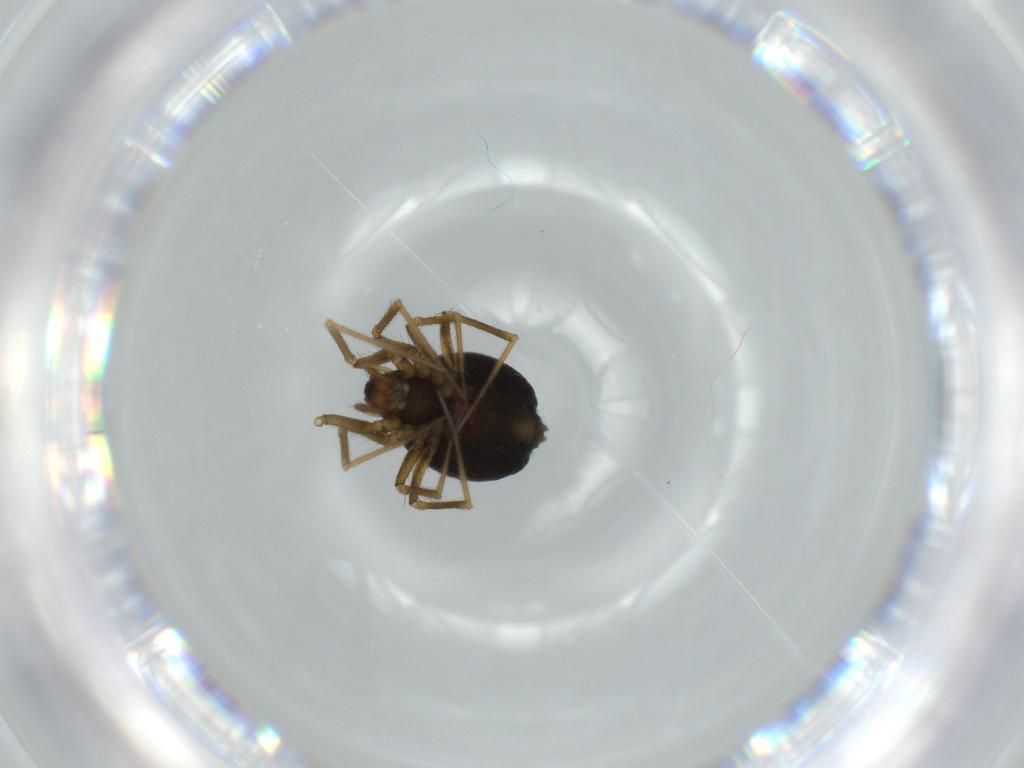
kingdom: Animalia
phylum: Arthropoda
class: Arachnida
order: Araneae
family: Linyphiidae
